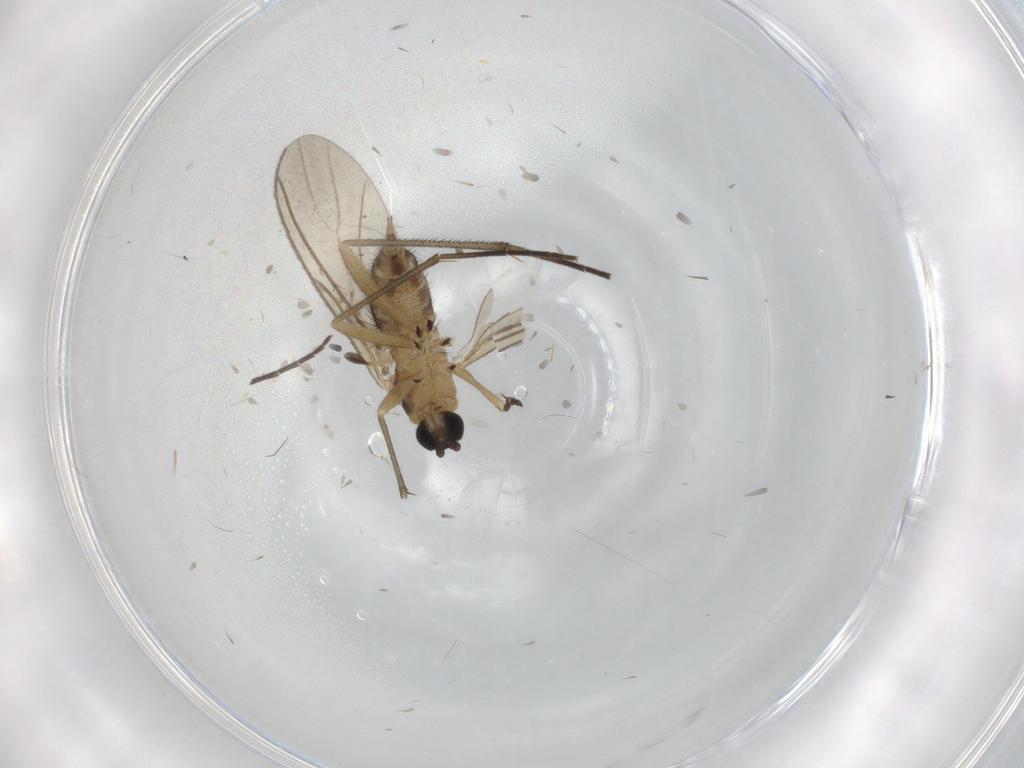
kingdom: Animalia
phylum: Arthropoda
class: Insecta
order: Diptera
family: Sciaridae
